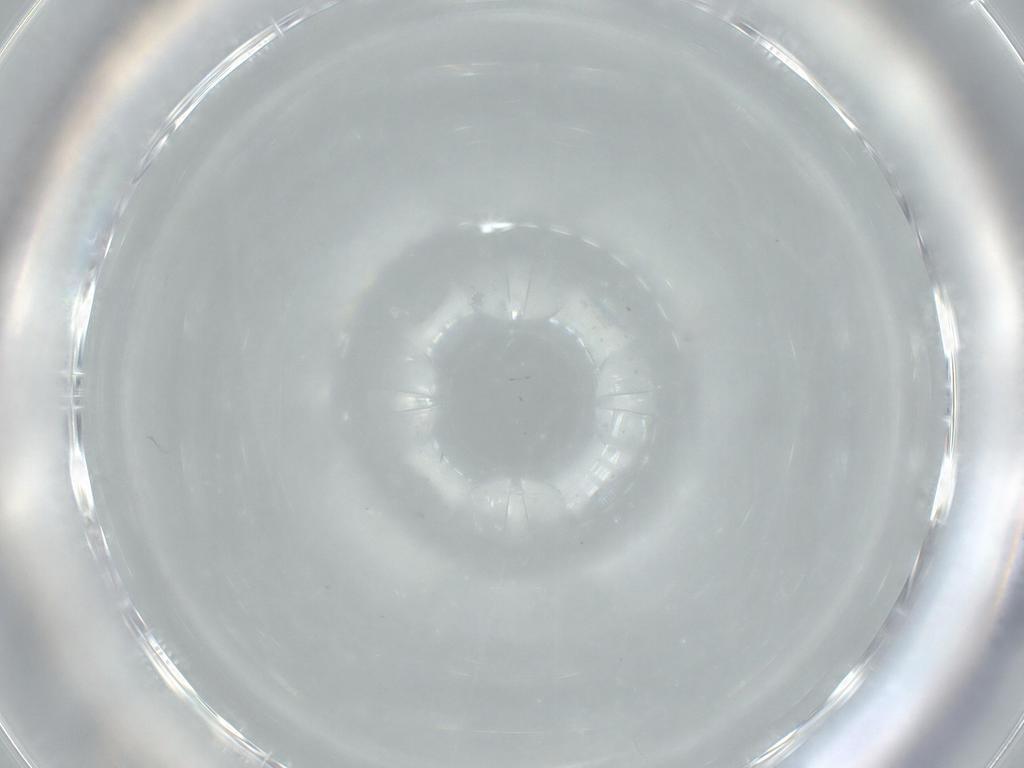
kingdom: Animalia
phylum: Arthropoda
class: Insecta
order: Diptera
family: Cecidomyiidae
